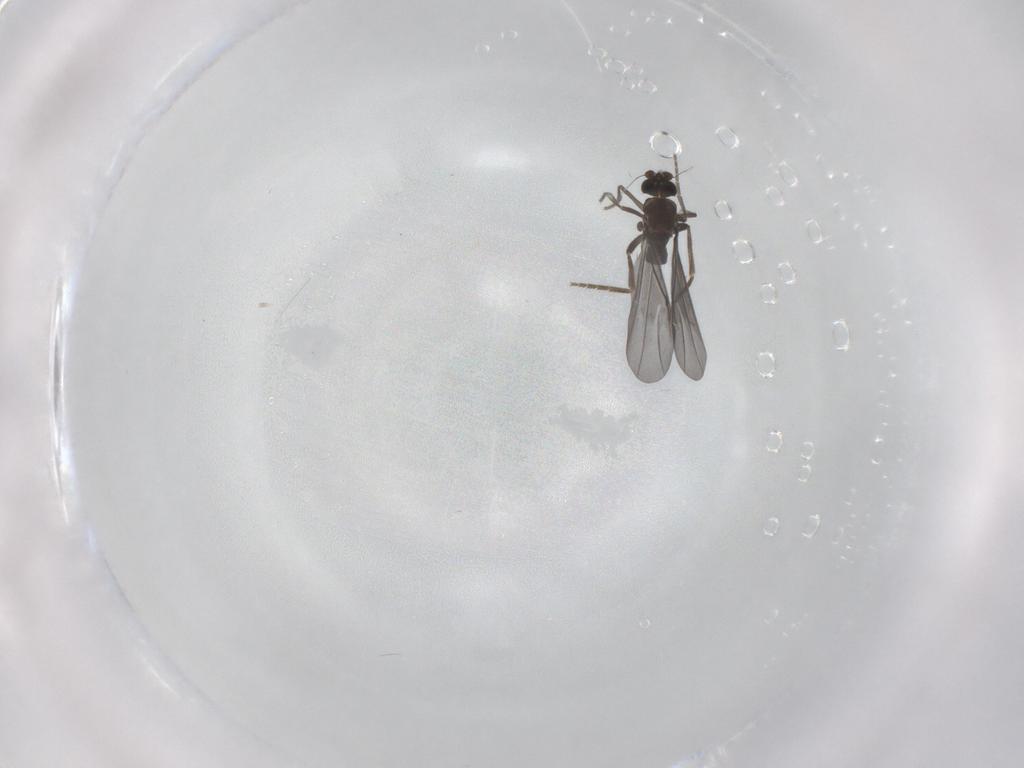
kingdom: Animalia
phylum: Arthropoda
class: Insecta
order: Diptera
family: Phoridae
